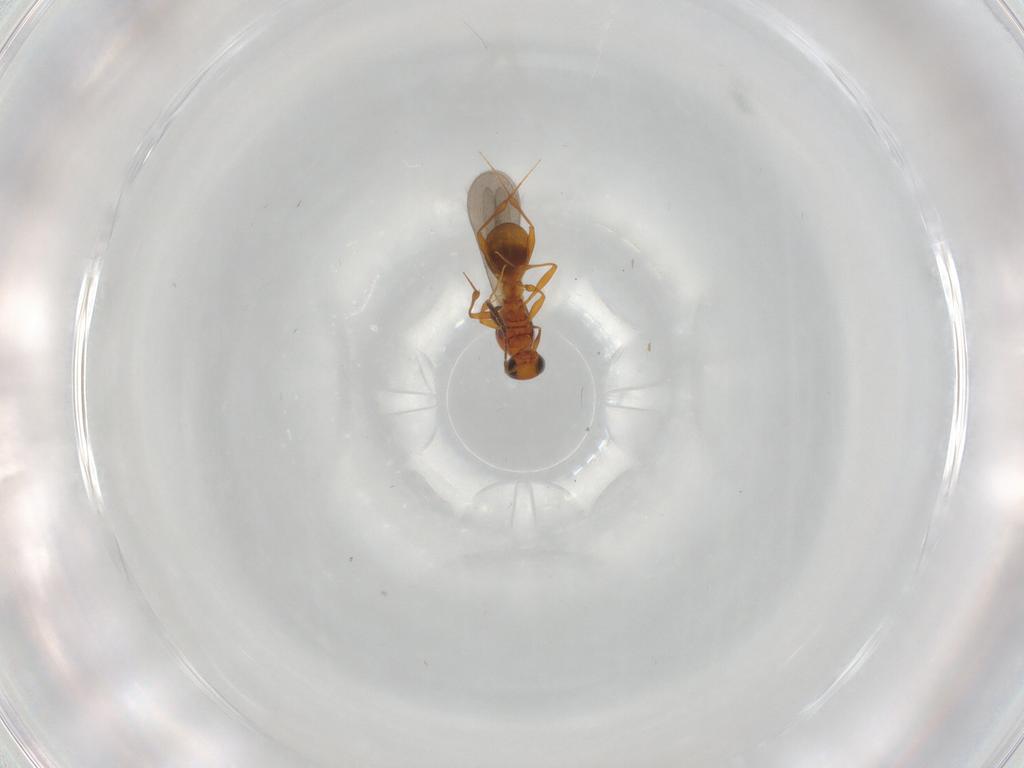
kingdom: Animalia
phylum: Arthropoda
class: Insecta
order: Hymenoptera
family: Platygastridae
